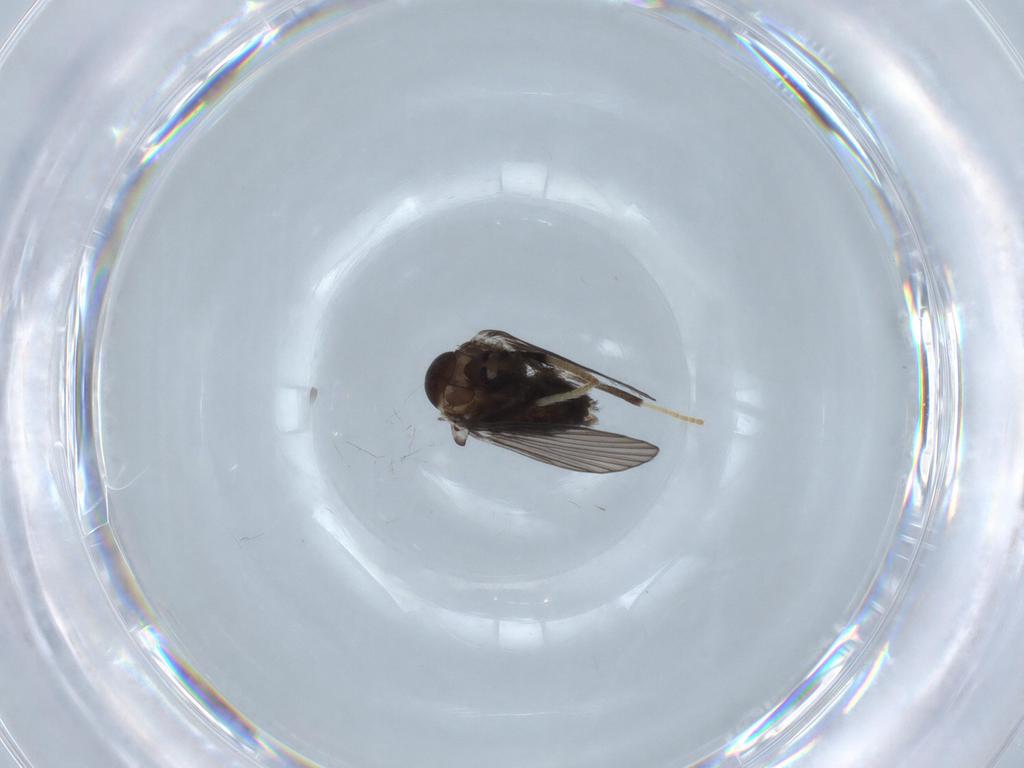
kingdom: Animalia
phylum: Arthropoda
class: Insecta
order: Diptera
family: Psychodidae
